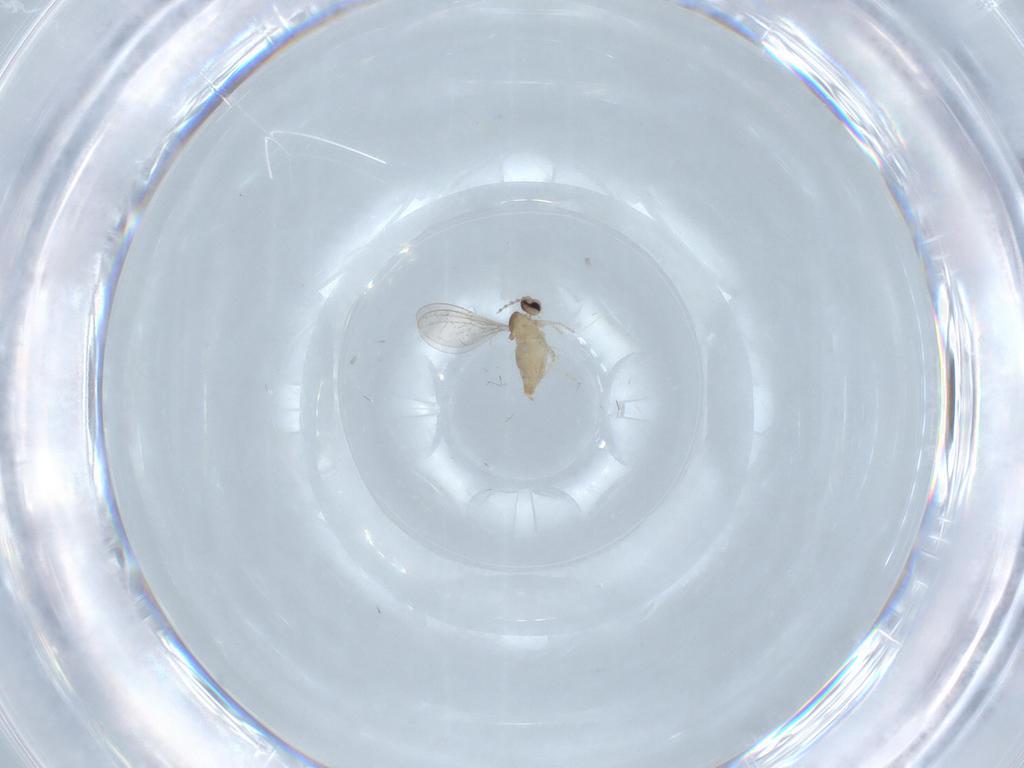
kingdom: Animalia
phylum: Arthropoda
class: Insecta
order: Diptera
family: Cecidomyiidae
